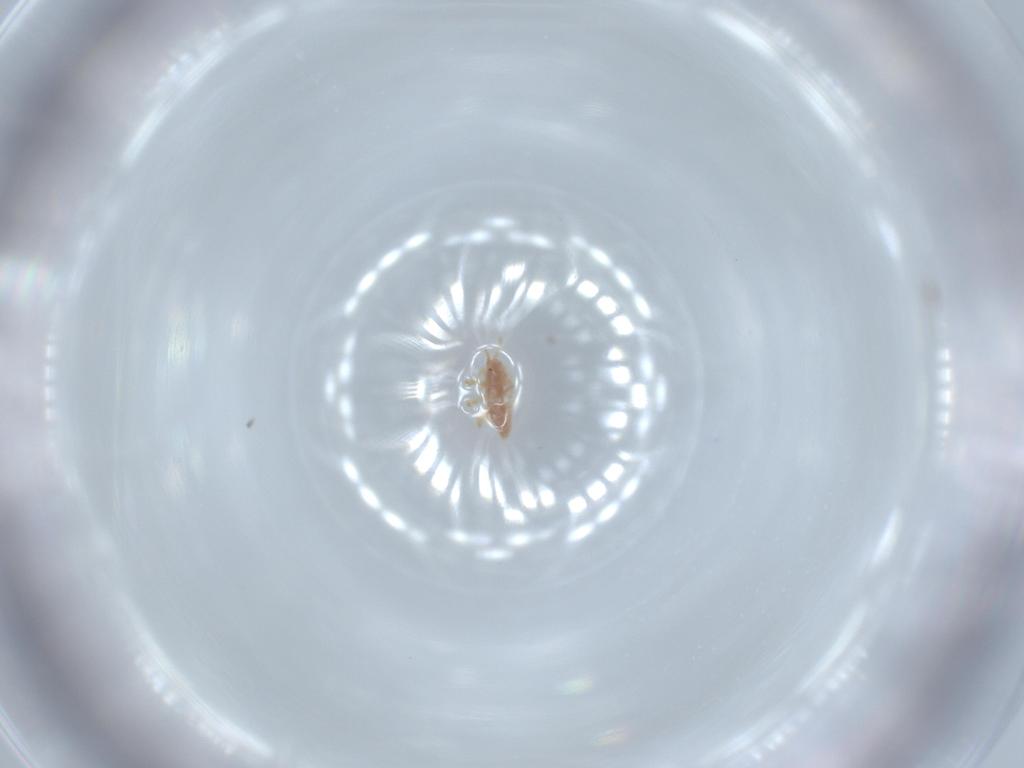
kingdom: Animalia
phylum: Arthropoda
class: Insecta
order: Hemiptera
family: Acanaloniidae
